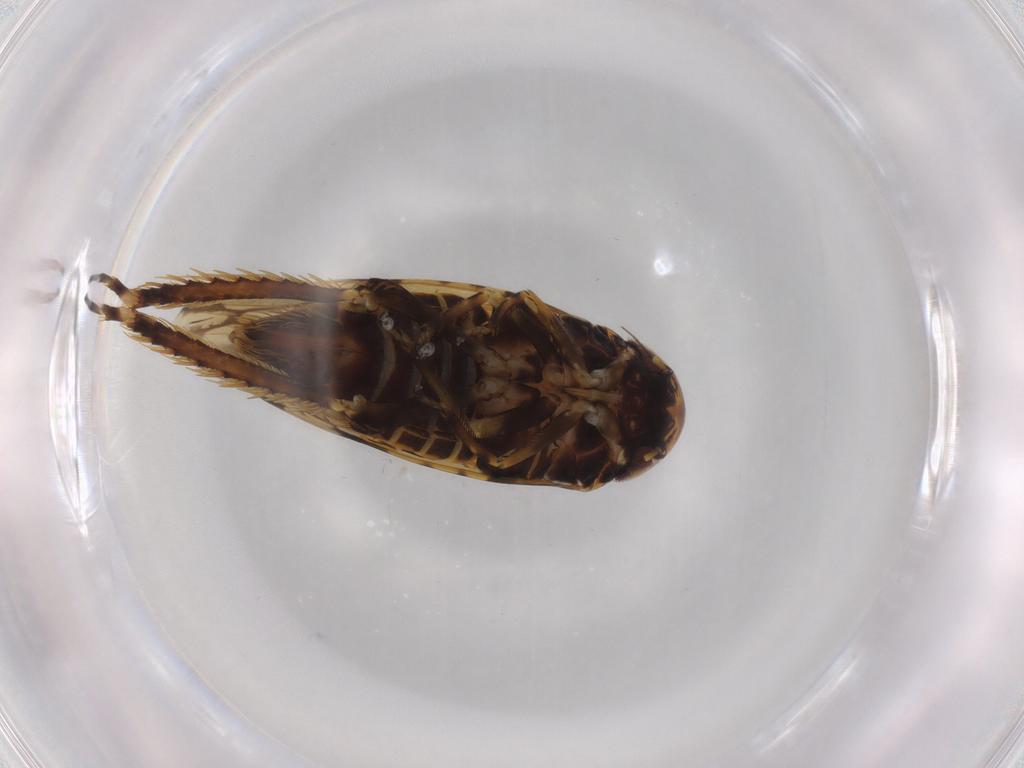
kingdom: Animalia
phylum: Arthropoda
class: Insecta
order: Hemiptera
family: Cicadellidae
